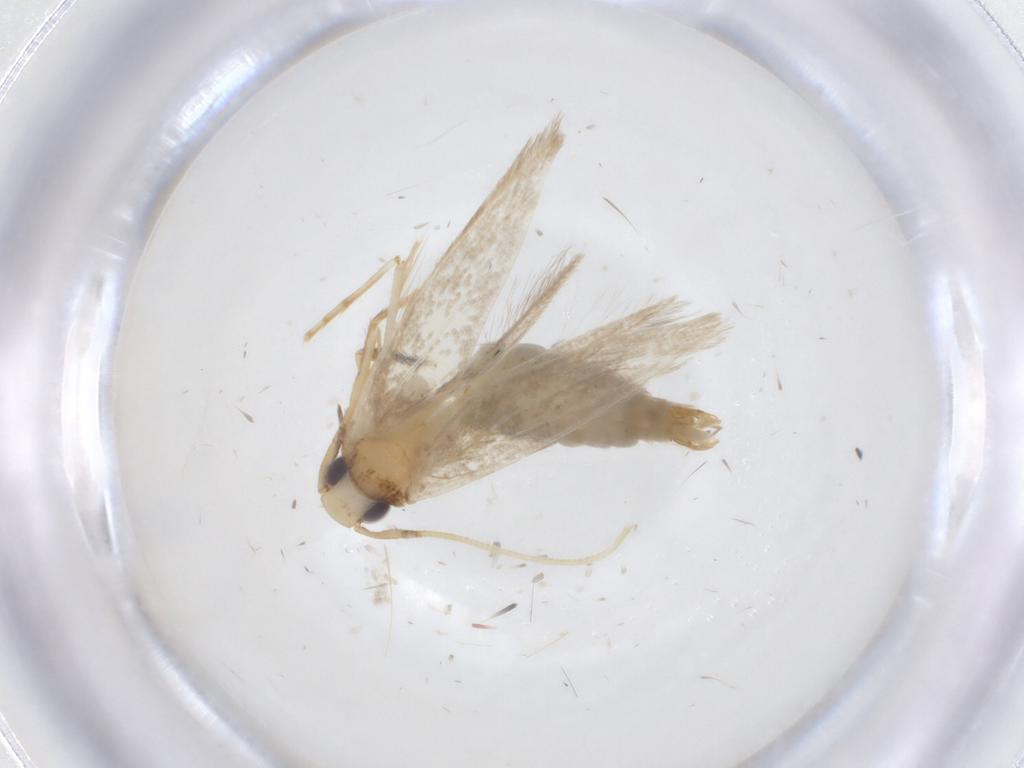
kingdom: Animalia
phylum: Arthropoda
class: Insecta
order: Lepidoptera
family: Tineidae
